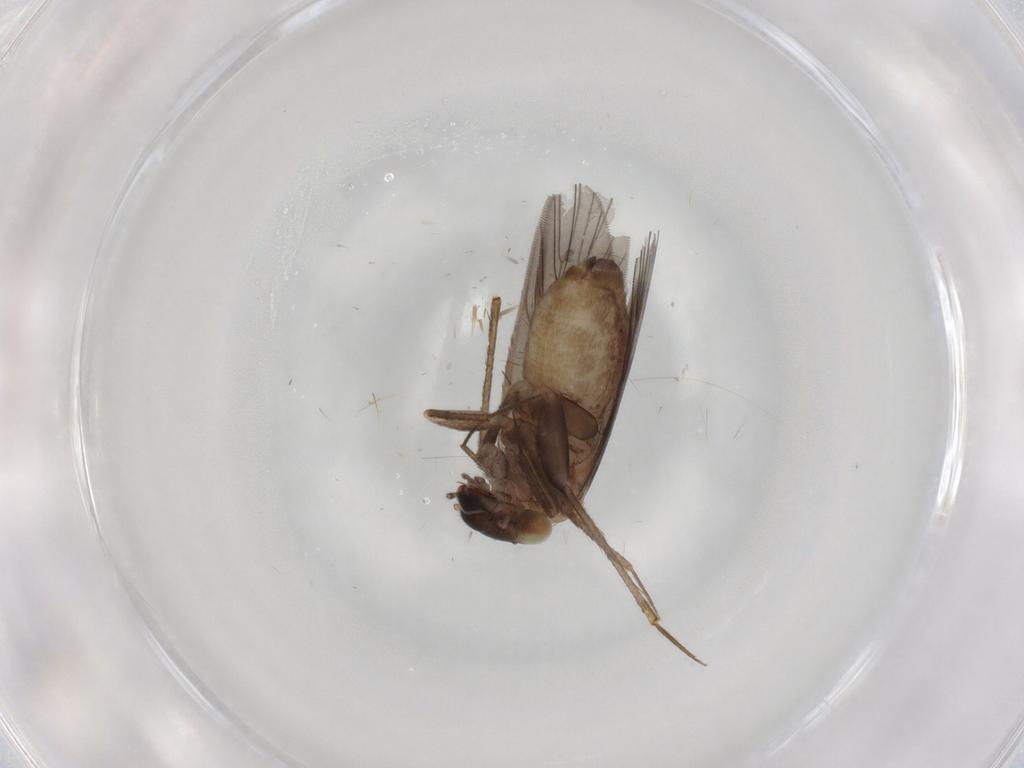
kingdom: Animalia
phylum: Arthropoda
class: Insecta
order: Psocodea
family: Lepidopsocidae
